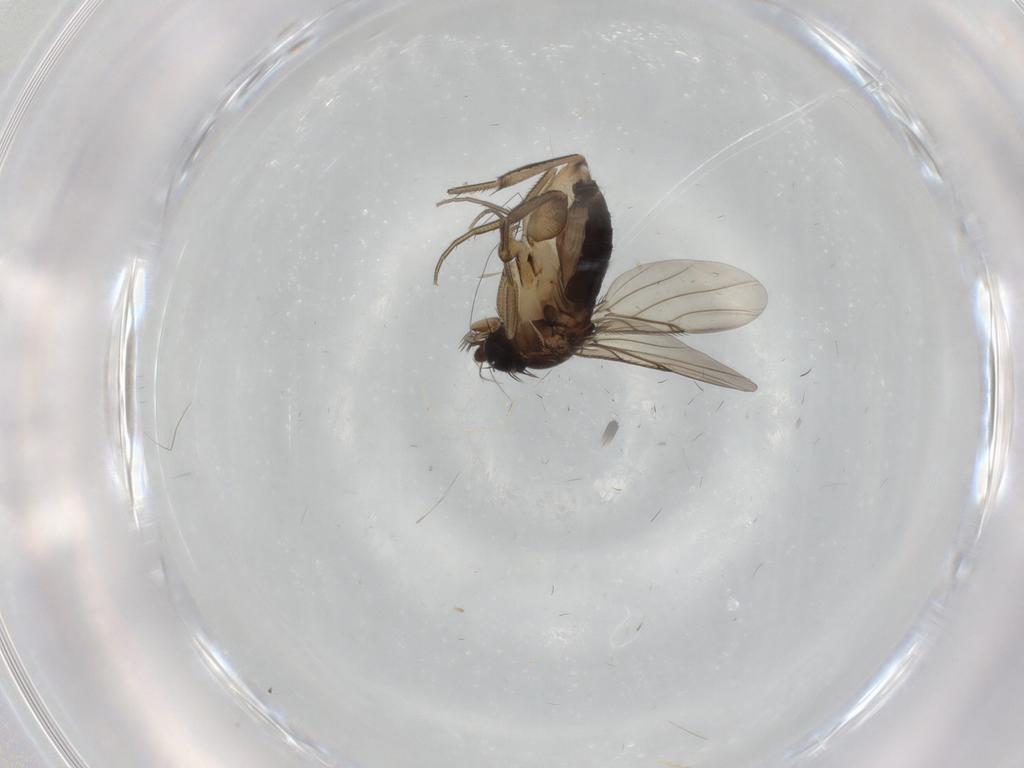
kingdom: Animalia
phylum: Arthropoda
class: Insecta
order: Diptera
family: Phoridae
